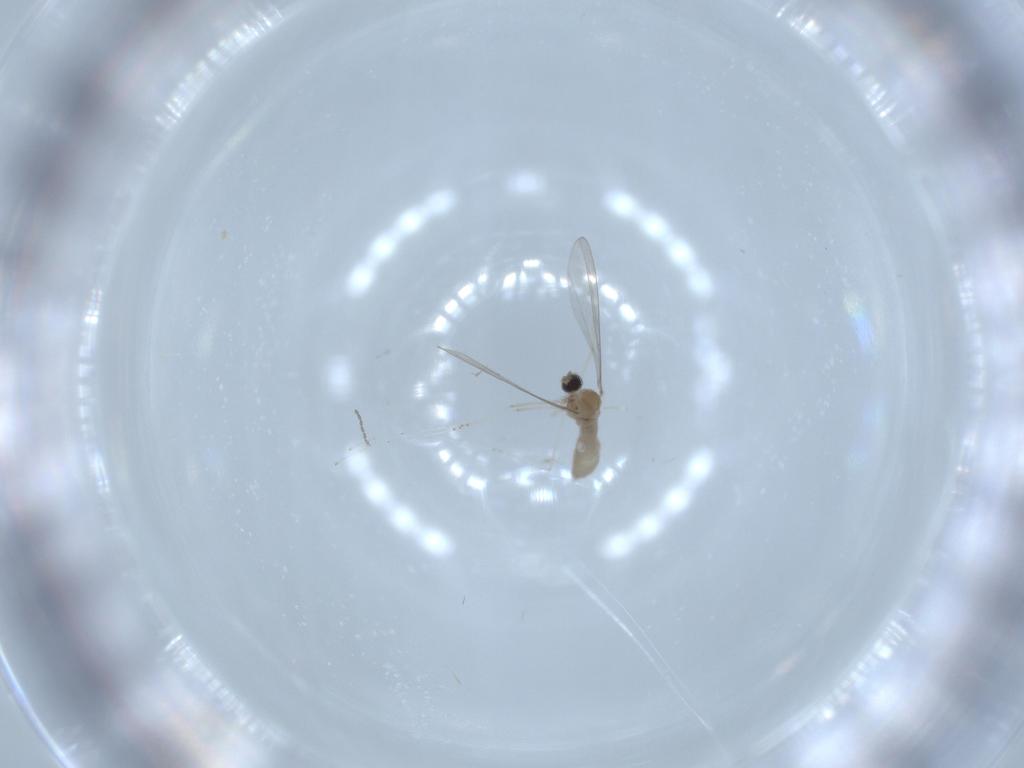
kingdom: Animalia
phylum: Arthropoda
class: Insecta
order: Diptera
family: Cecidomyiidae
